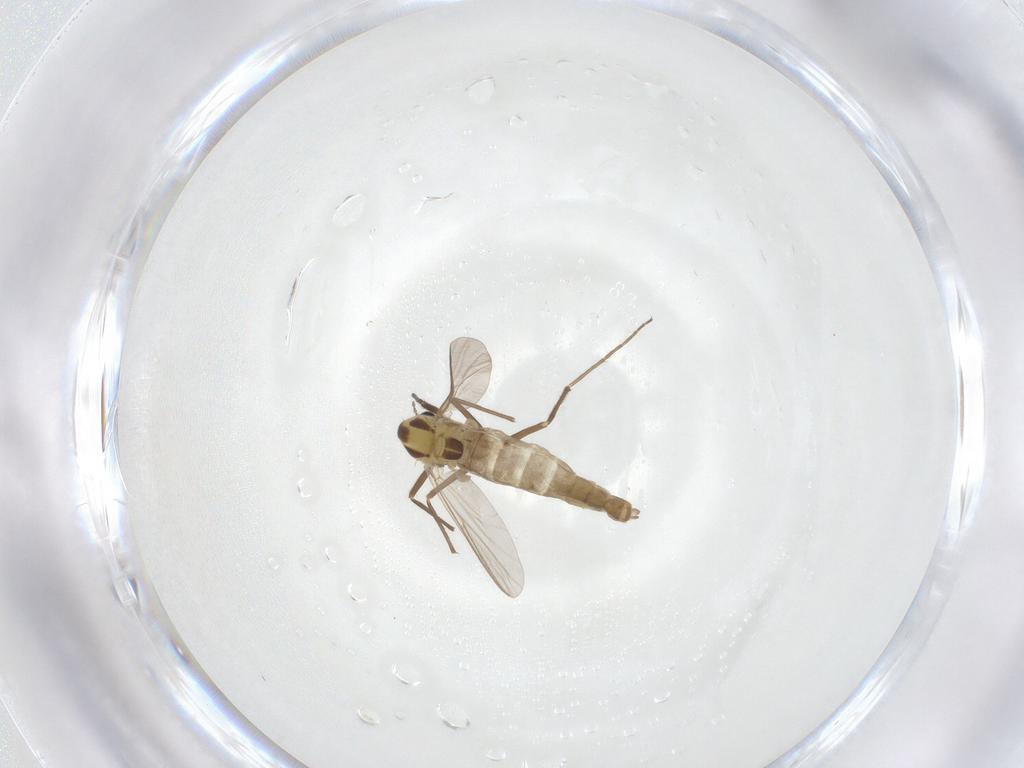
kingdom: Animalia
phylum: Arthropoda
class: Insecta
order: Diptera
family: Chironomidae
